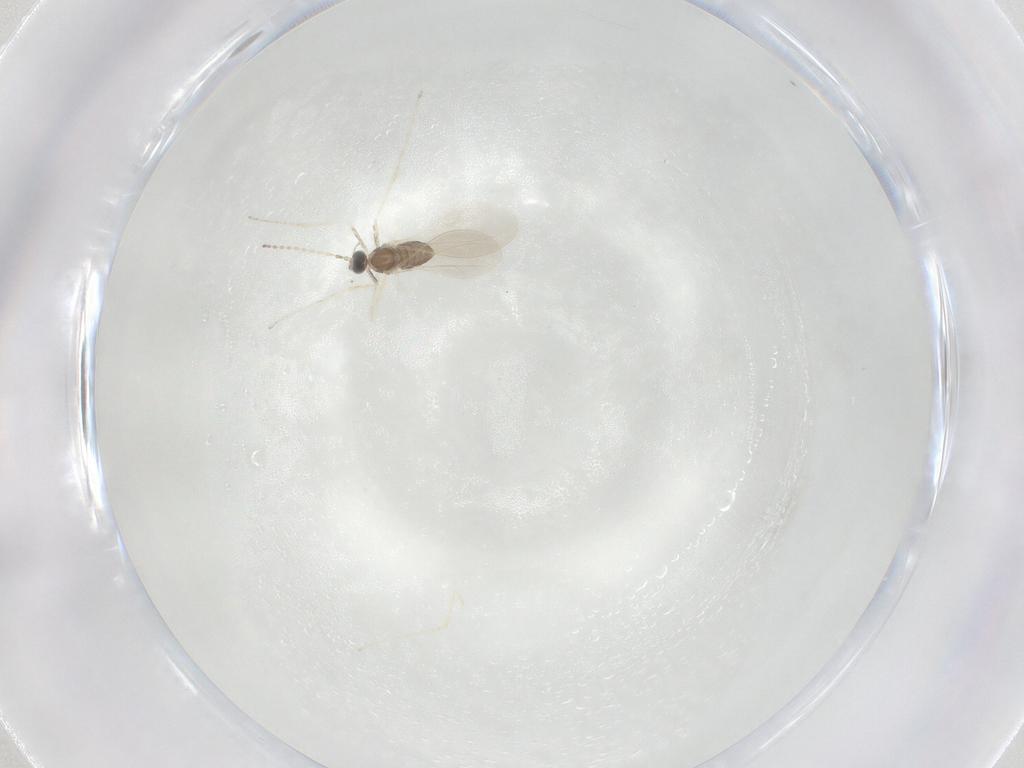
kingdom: Animalia
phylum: Arthropoda
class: Insecta
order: Diptera
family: Cecidomyiidae
